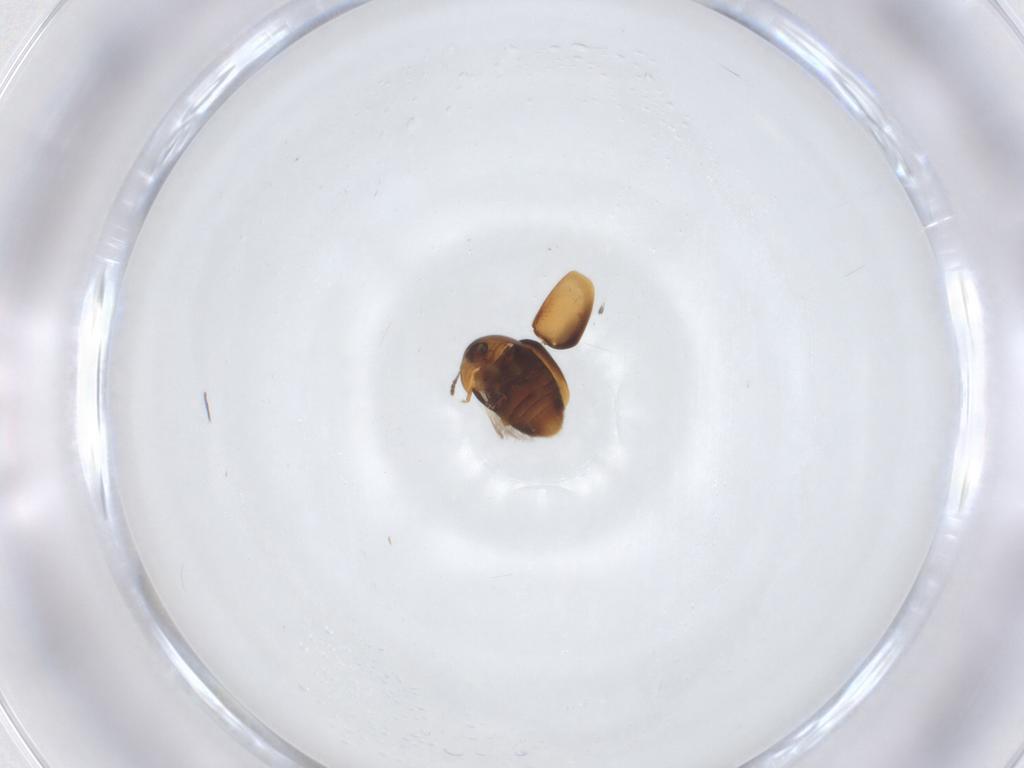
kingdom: Animalia
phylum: Arthropoda
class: Insecta
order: Coleoptera
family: Corylophidae
